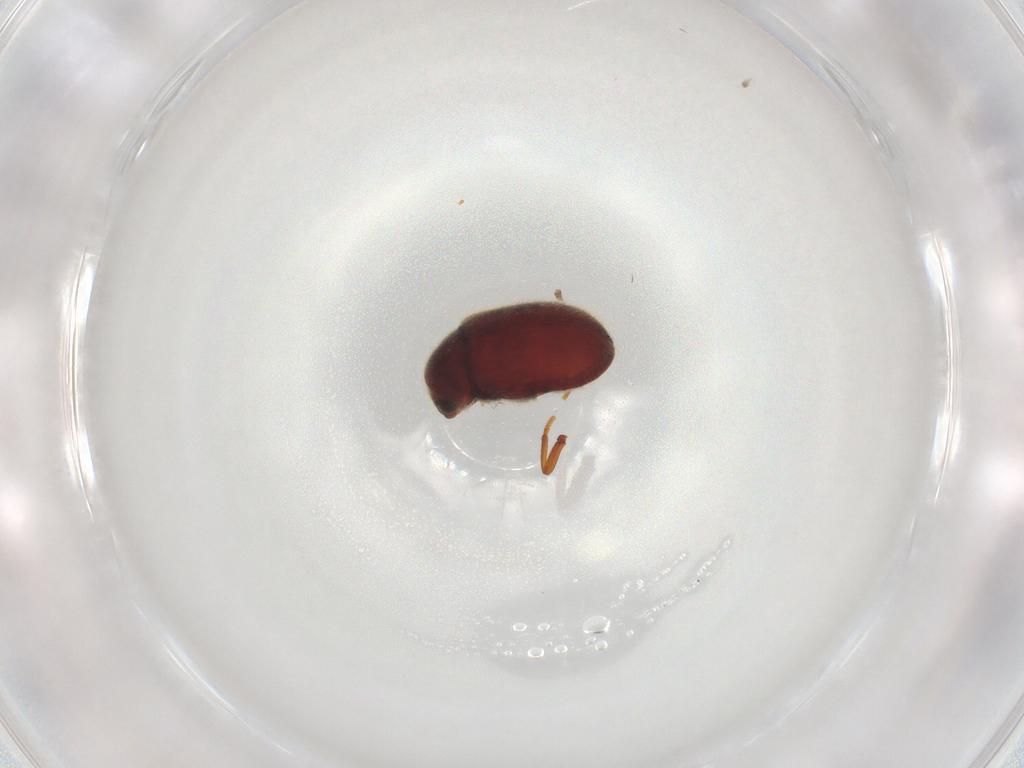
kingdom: Animalia
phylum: Arthropoda
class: Insecta
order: Coleoptera
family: Ptinidae
